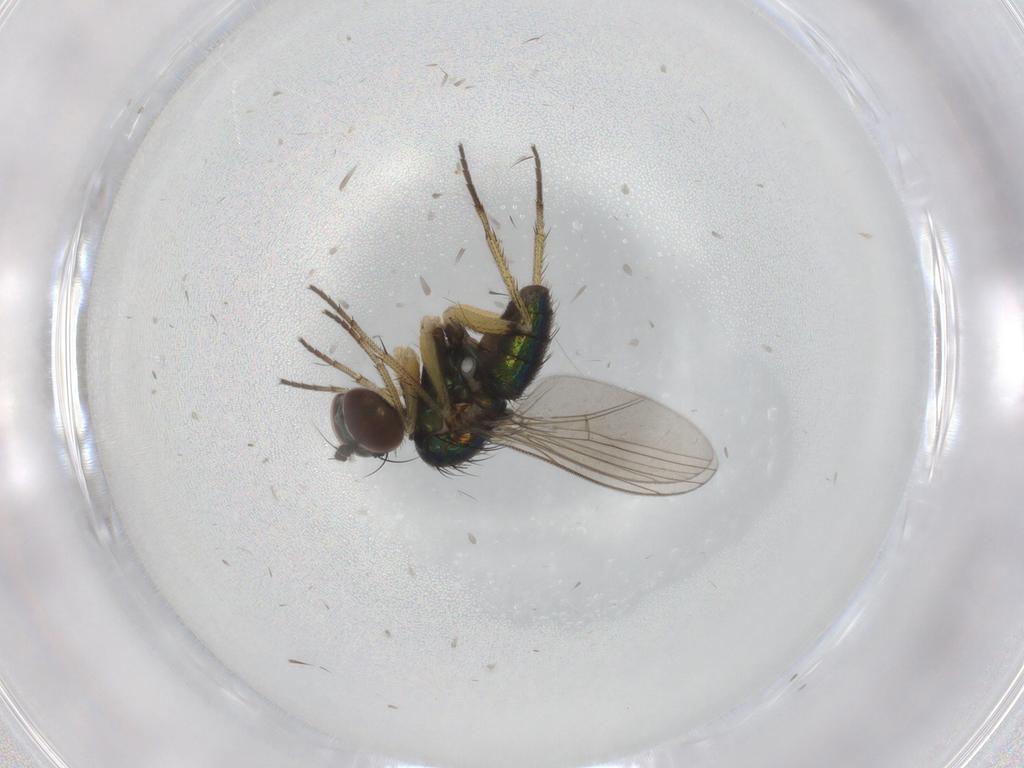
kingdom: Animalia
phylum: Arthropoda
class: Insecta
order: Diptera
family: Ceratopogonidae
